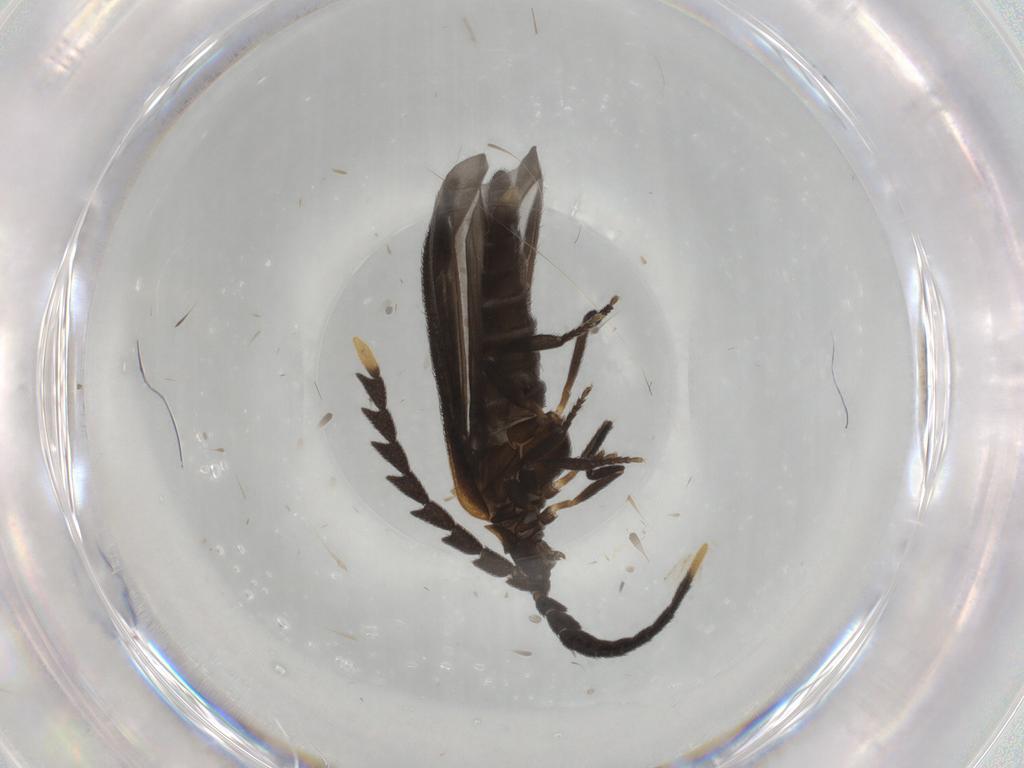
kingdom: Animalia
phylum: Arthropoda
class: Insecta
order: Coleoptera
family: Lycidae
